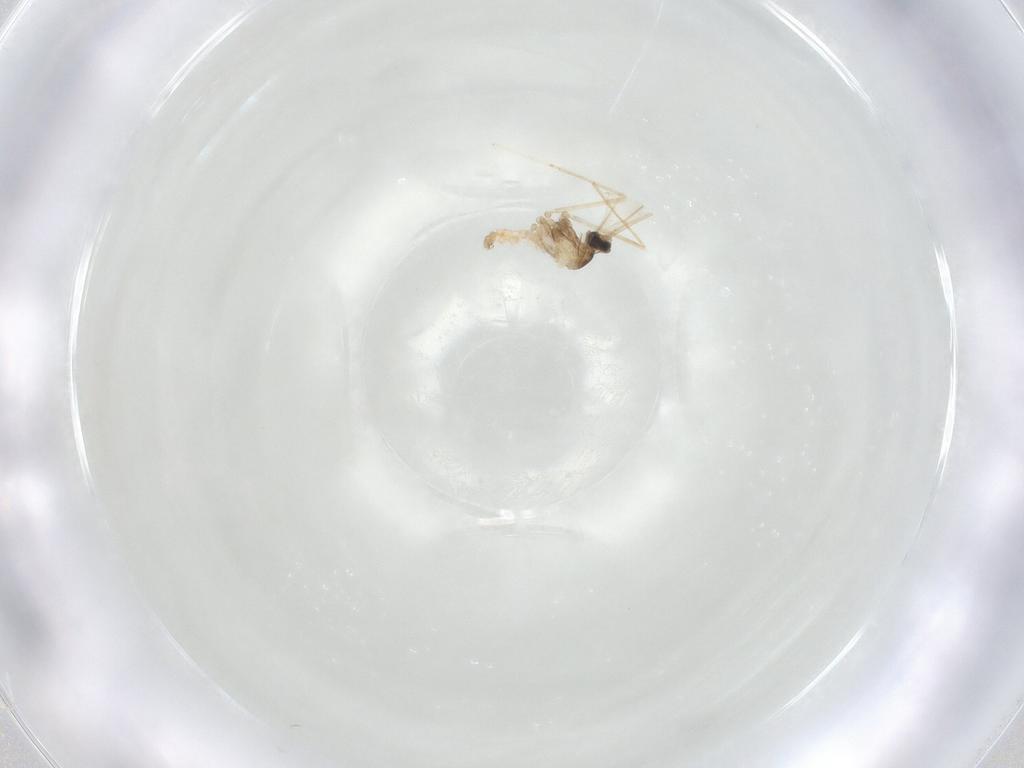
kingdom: Animalia
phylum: Arthropoda
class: Insecta
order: Diptera
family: Cecidomyiidae
